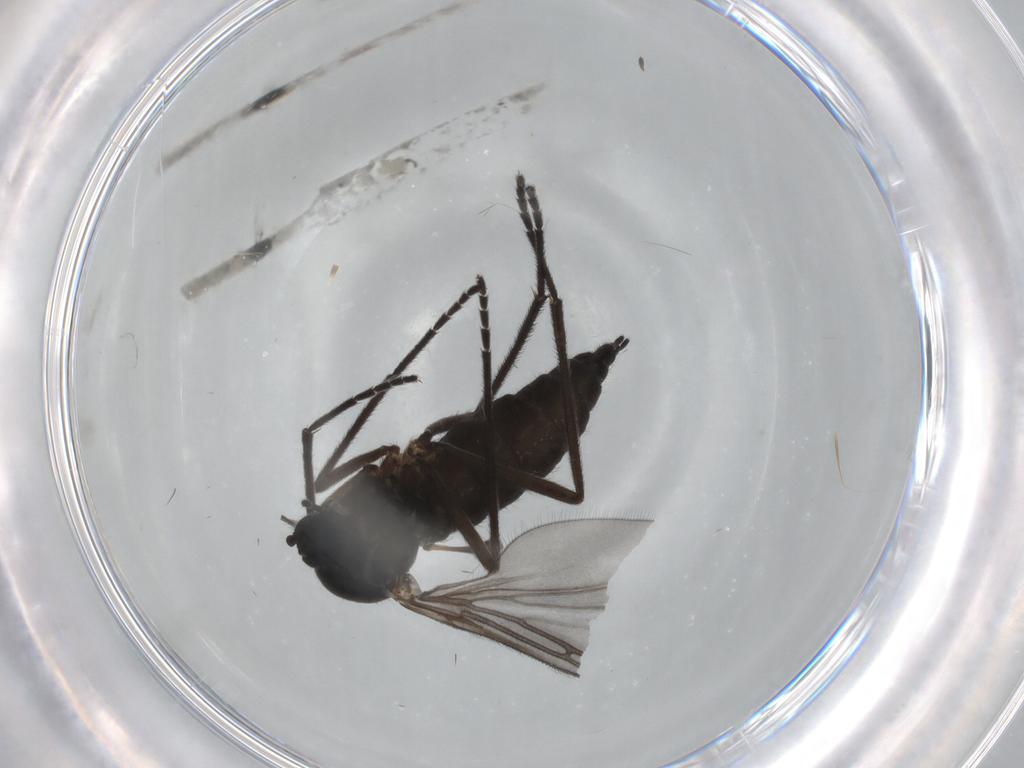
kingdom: Animalia
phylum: Arthropoda
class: Insecta
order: Diptera
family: Sciaridae
